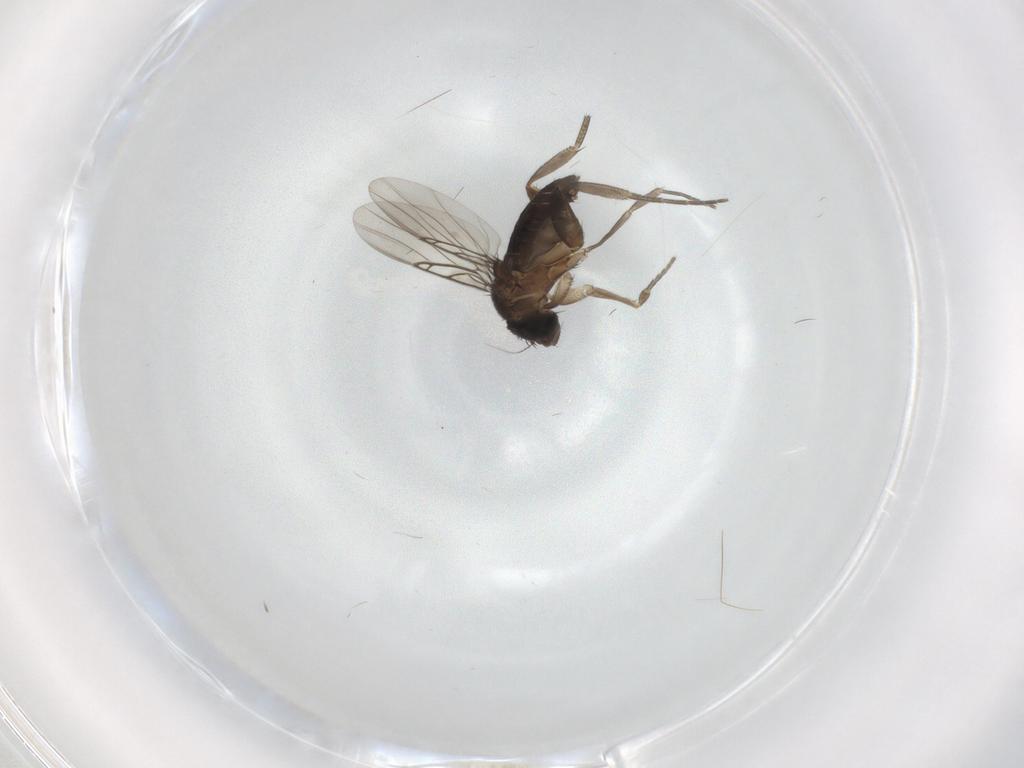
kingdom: Animalia
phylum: Arthropoda
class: Insecta
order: Diptera
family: Phoridae
